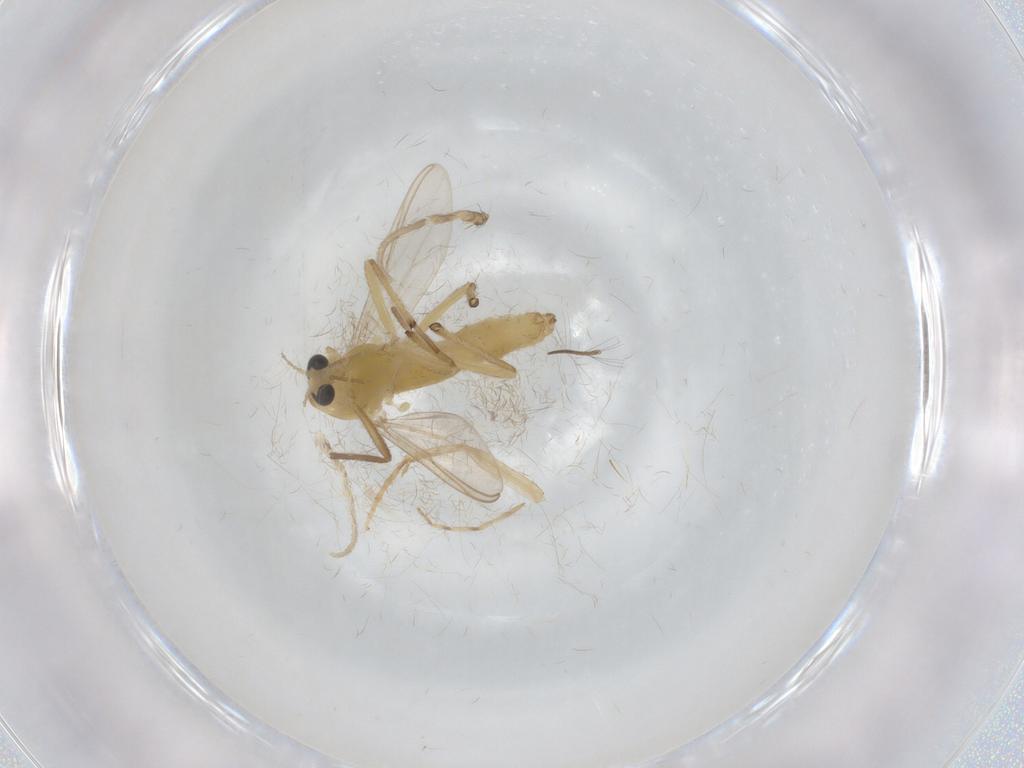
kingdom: Animalia
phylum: Arthropoda
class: Insecta
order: Diptera
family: Chironomidae
